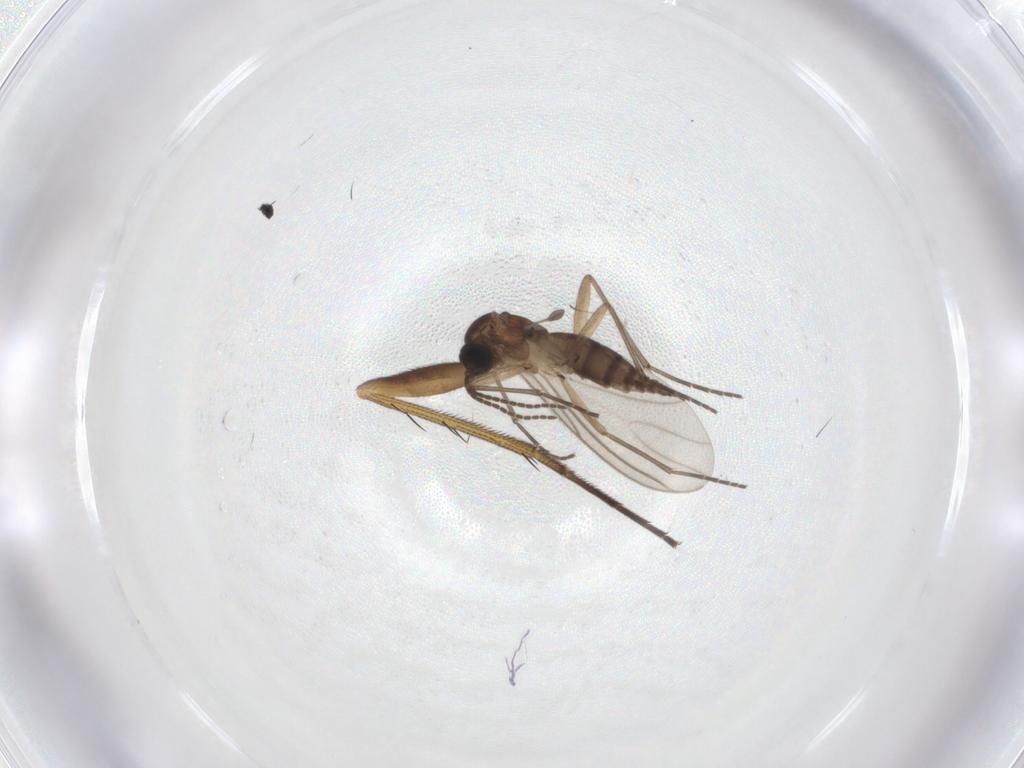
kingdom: Animalia
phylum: Arthropoda
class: Insecta
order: Diptera
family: Sciaridae
